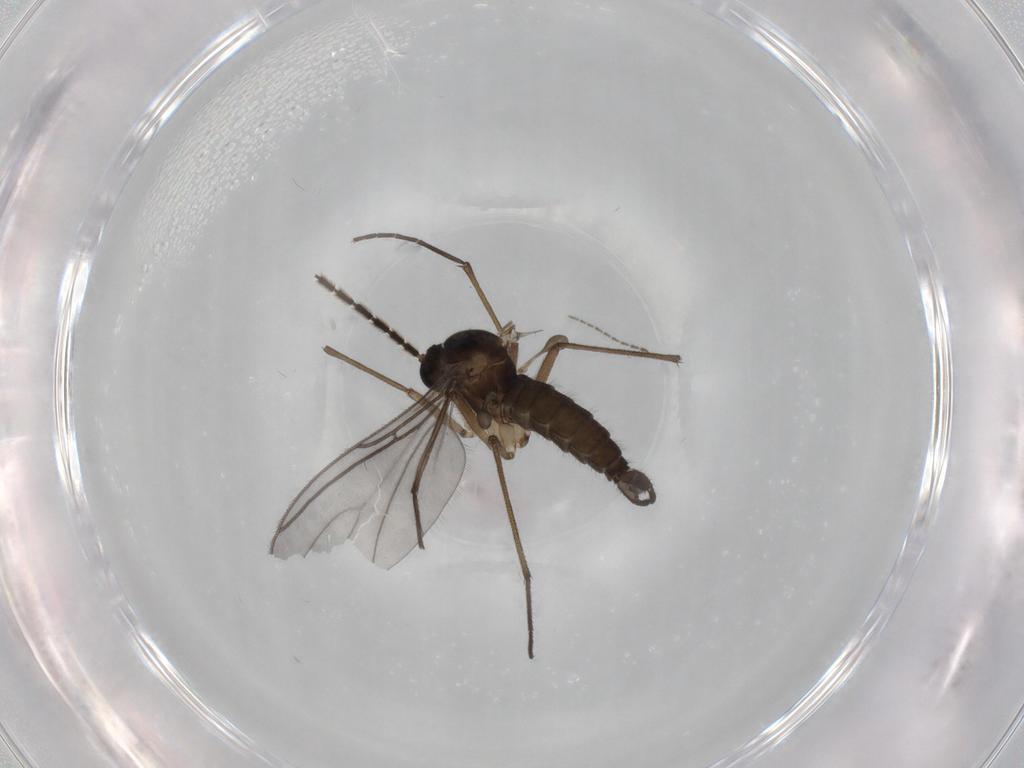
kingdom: Animalia
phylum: Arthropoda
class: Insecta
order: Diptera
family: Sciaridae
